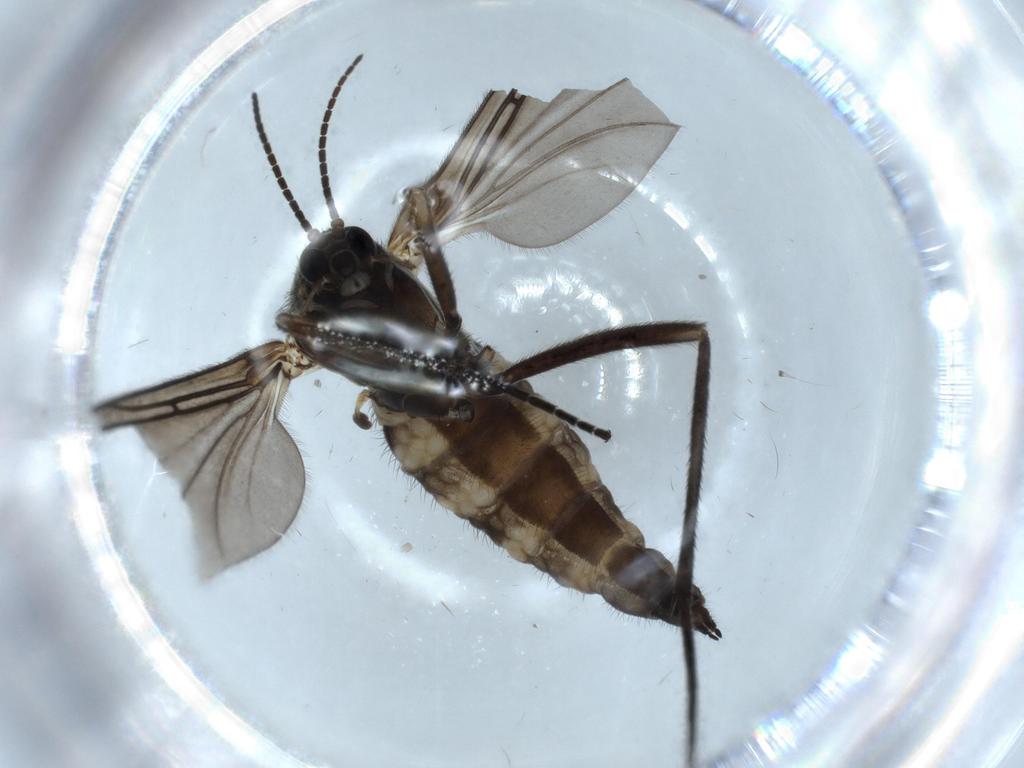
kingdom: Animalia
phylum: Arthropoda
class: Insecta
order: Diptera
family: Sciaridae
